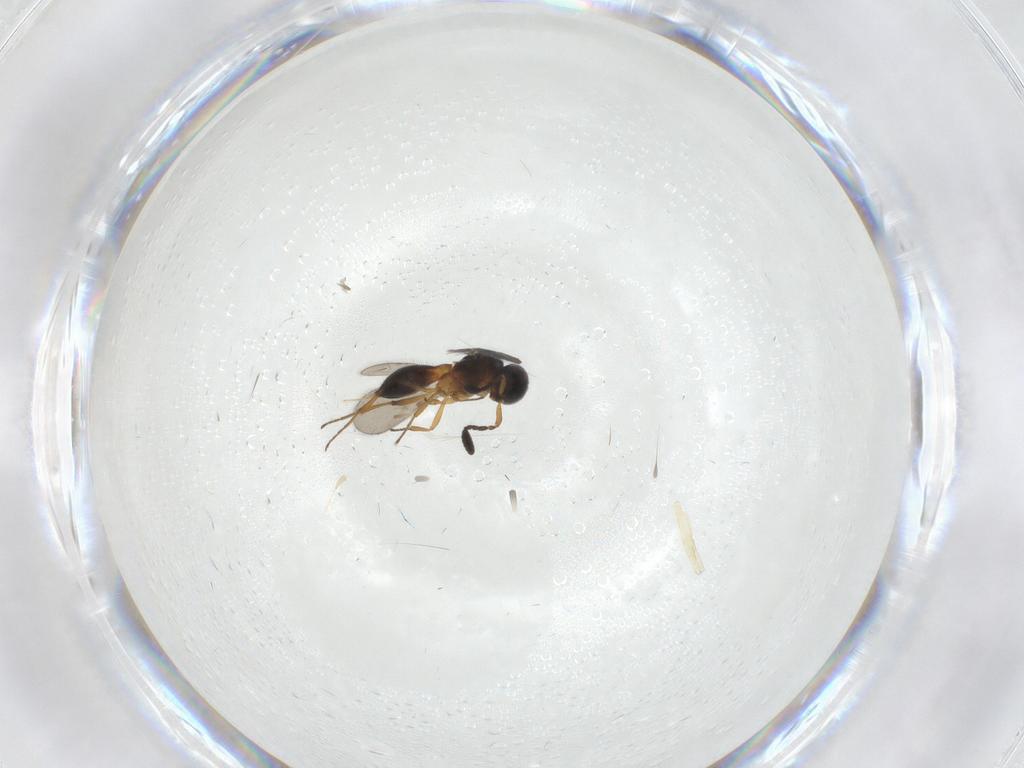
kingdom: Animalia
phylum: Arthropoda
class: Insecta
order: Hymenoptera
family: Scelionidae
